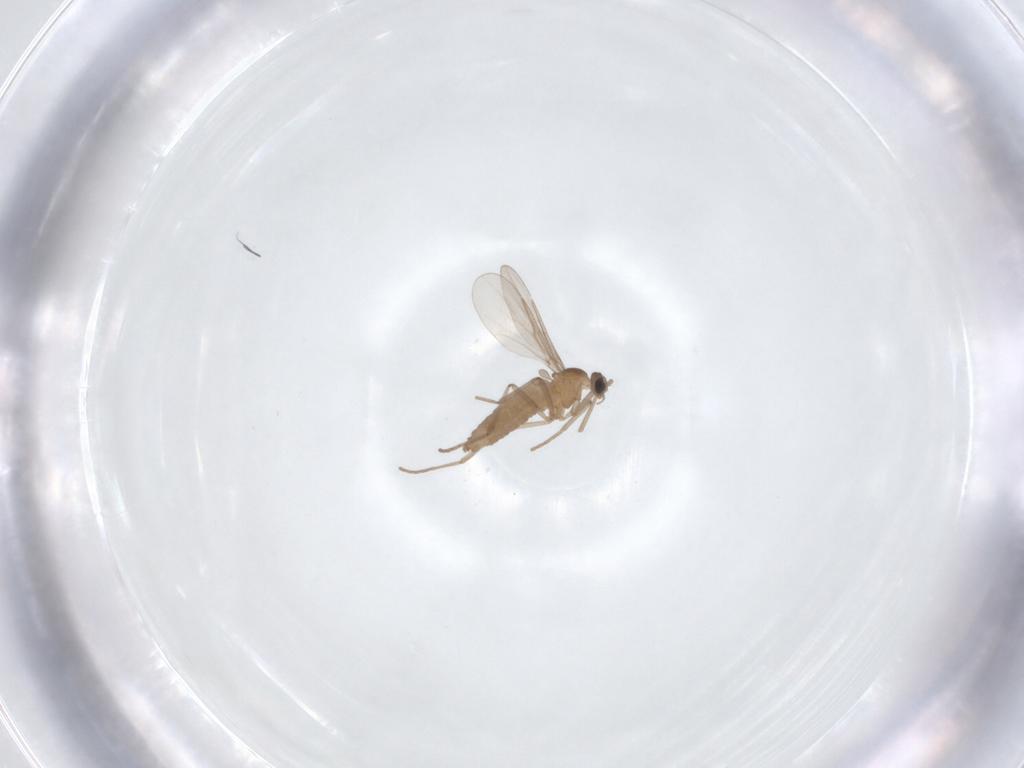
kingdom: Animalia
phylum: Arthropoda
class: Insecta
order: Diptera
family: Cecidomyiidae
